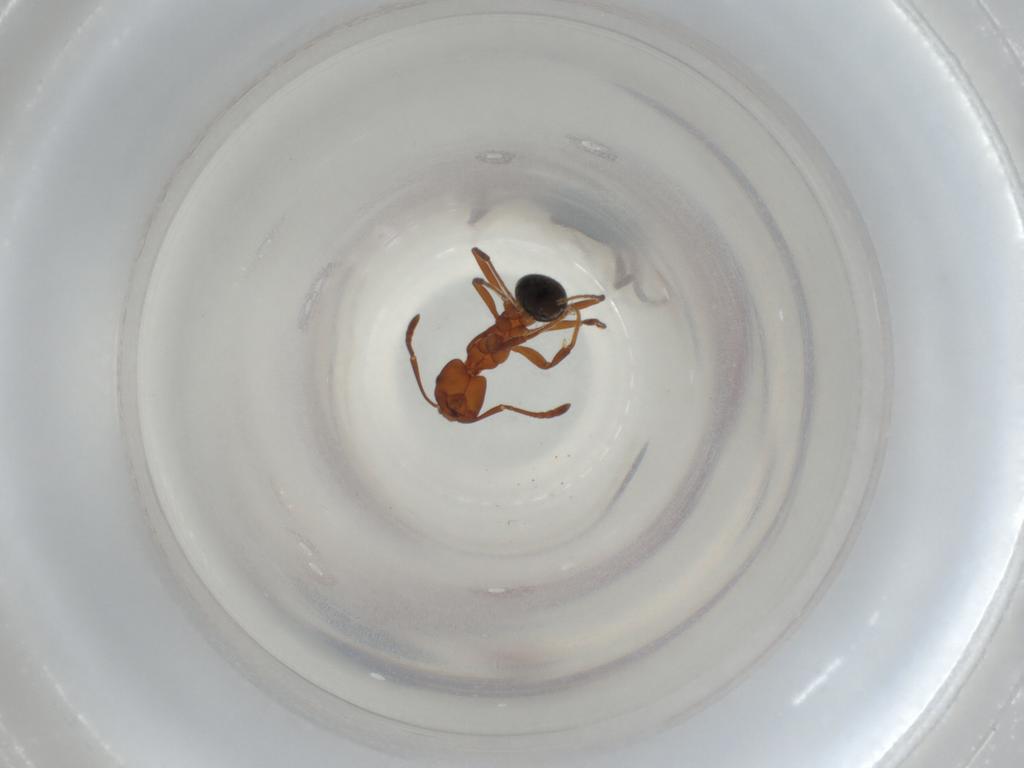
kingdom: Animalia
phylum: Arthropoda
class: Insecta
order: Hymenoptera
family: Formicidae
